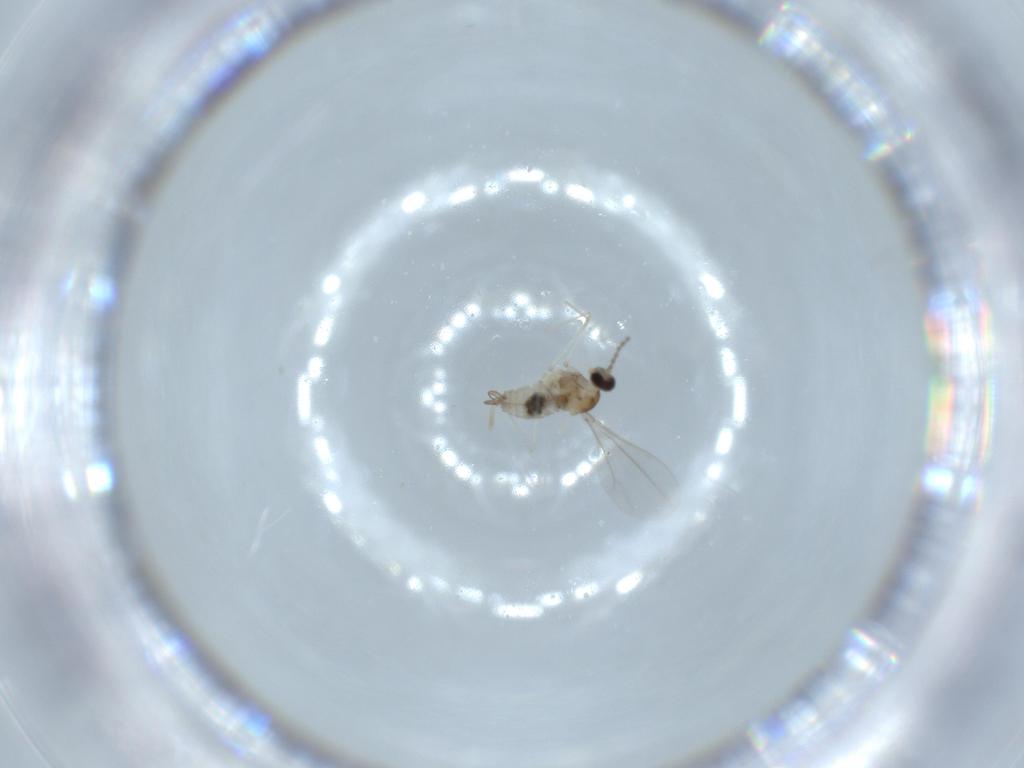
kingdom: Animalia
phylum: Arthropoda
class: Insecta
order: Diptera
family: Cecidomyiidae
